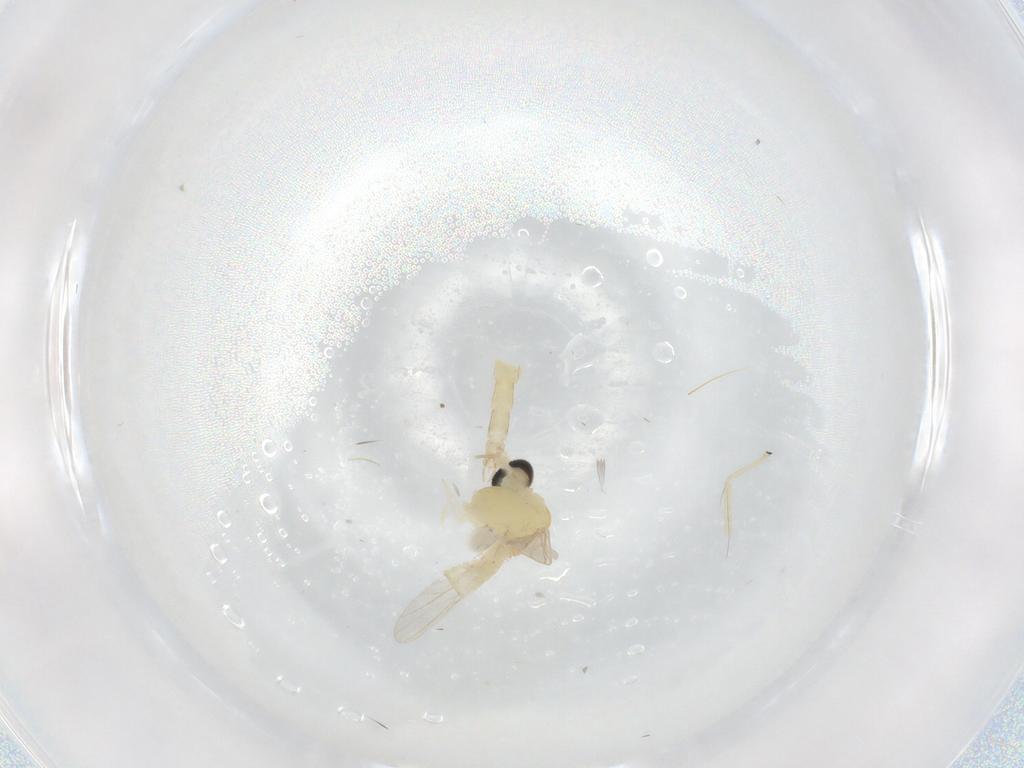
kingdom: Animalia
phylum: Arthropoda
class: Insecta
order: Diptera
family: Chironomidae
